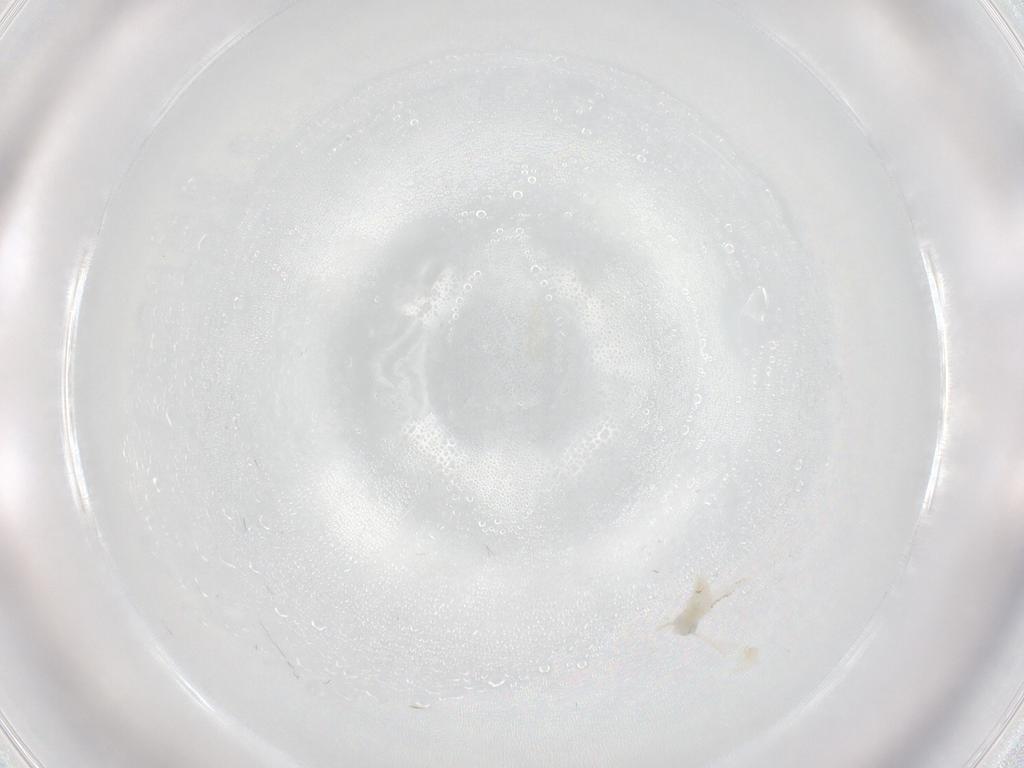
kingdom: Animalia
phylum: Arthropoda
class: Insecta
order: Diptera
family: Cecidomyiidae
